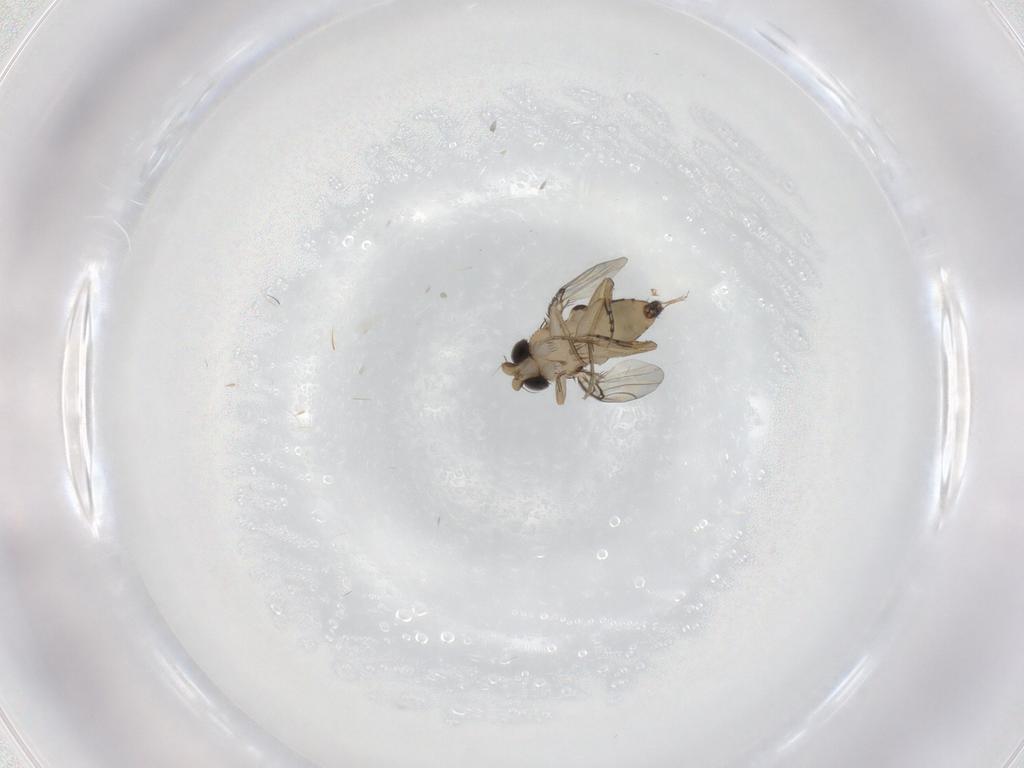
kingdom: Animalia
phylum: Arthropoda
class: Insecta
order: Diptera
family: Phoridae
